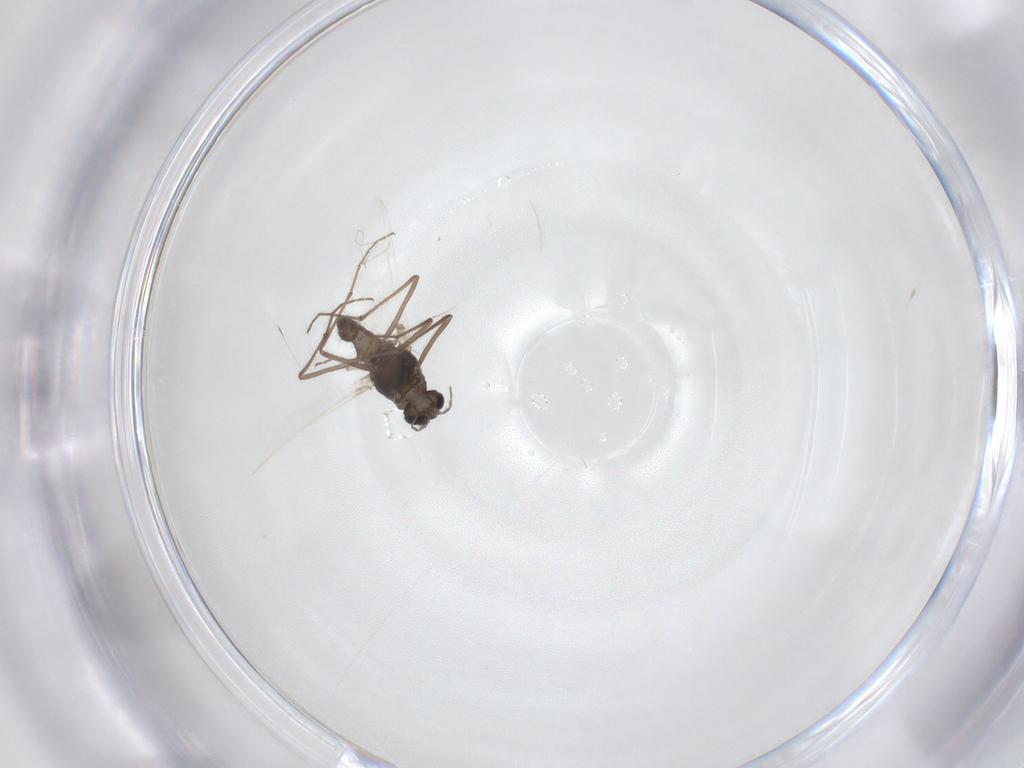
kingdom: Animalia
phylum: Arthropoda
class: Insecta
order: Diptera
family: Chironomidae
